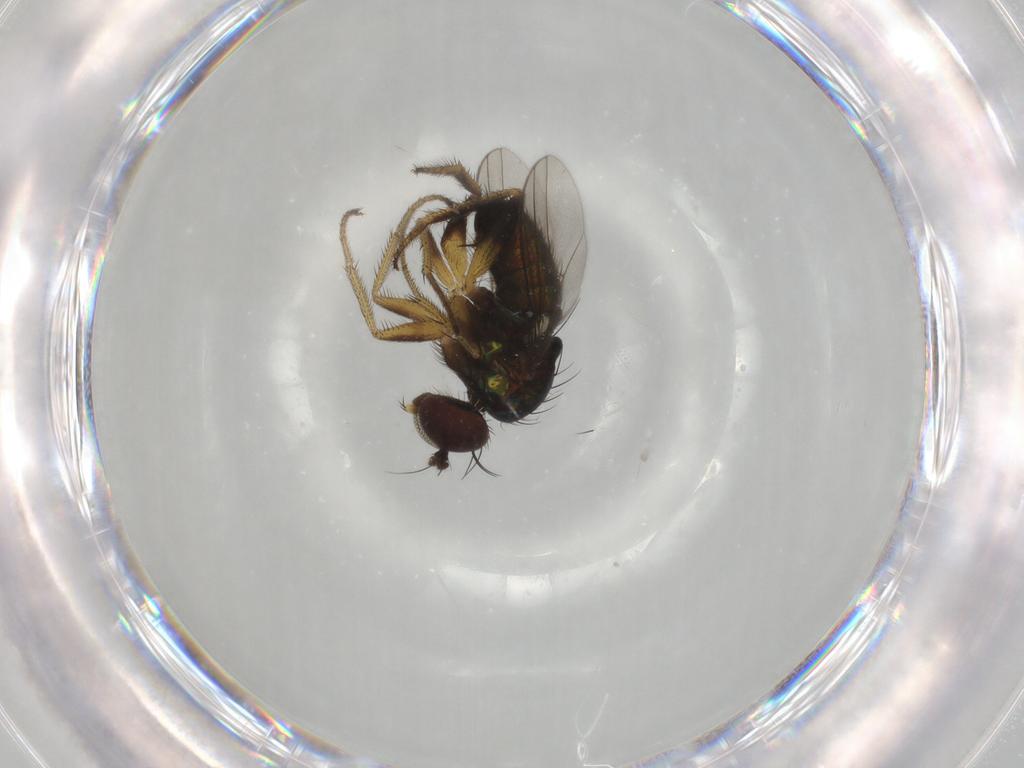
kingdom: Animalia
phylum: Arthropoda
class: Insecta
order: Diptera
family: Dolichopodidae
